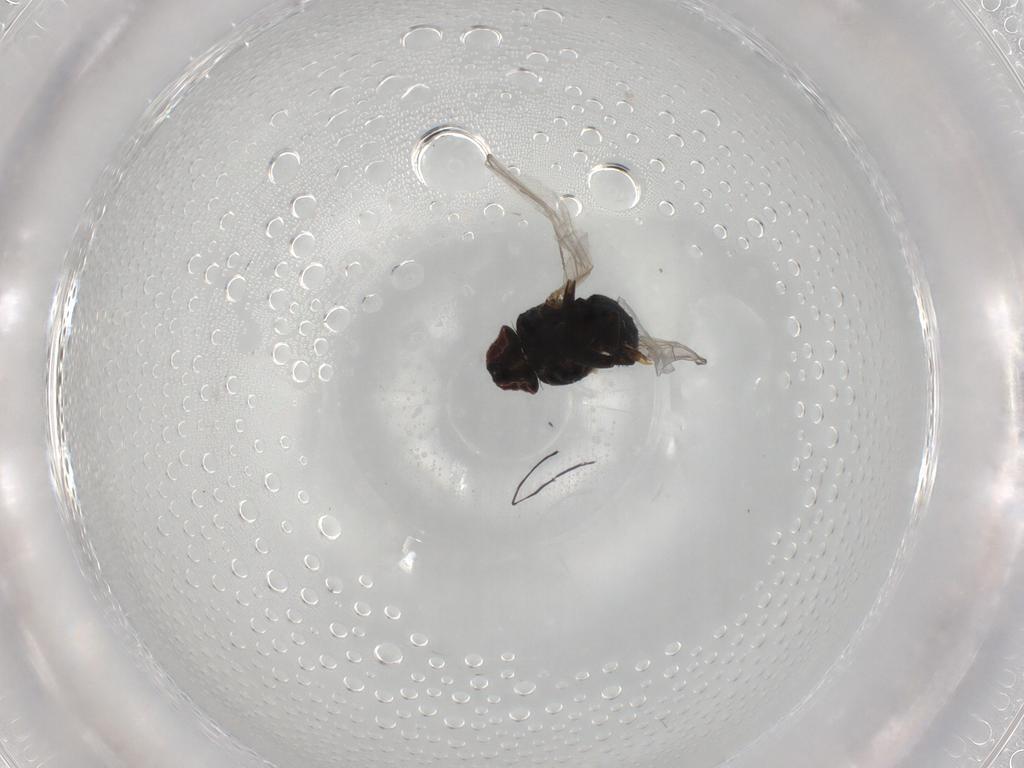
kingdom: Animalia
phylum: Arthropoda
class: Insecta
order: Diptera
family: Agromyzidae
